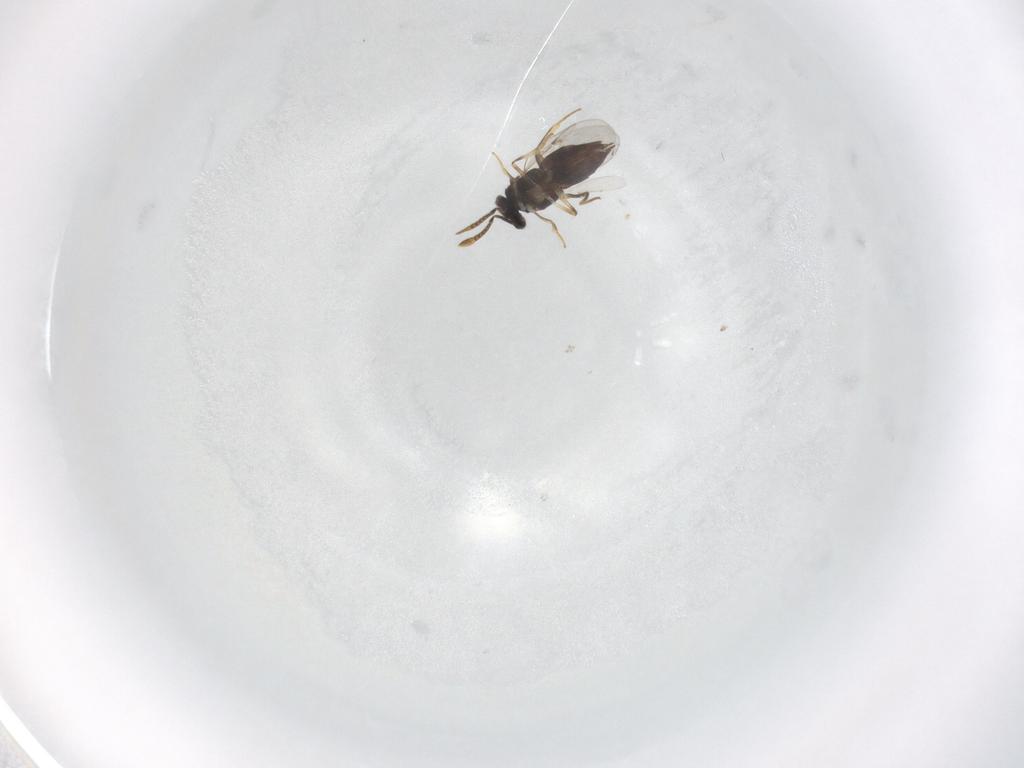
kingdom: Animalia
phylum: Arthropoda
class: Insecta
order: Hymenoptera
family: Encyrtidae
